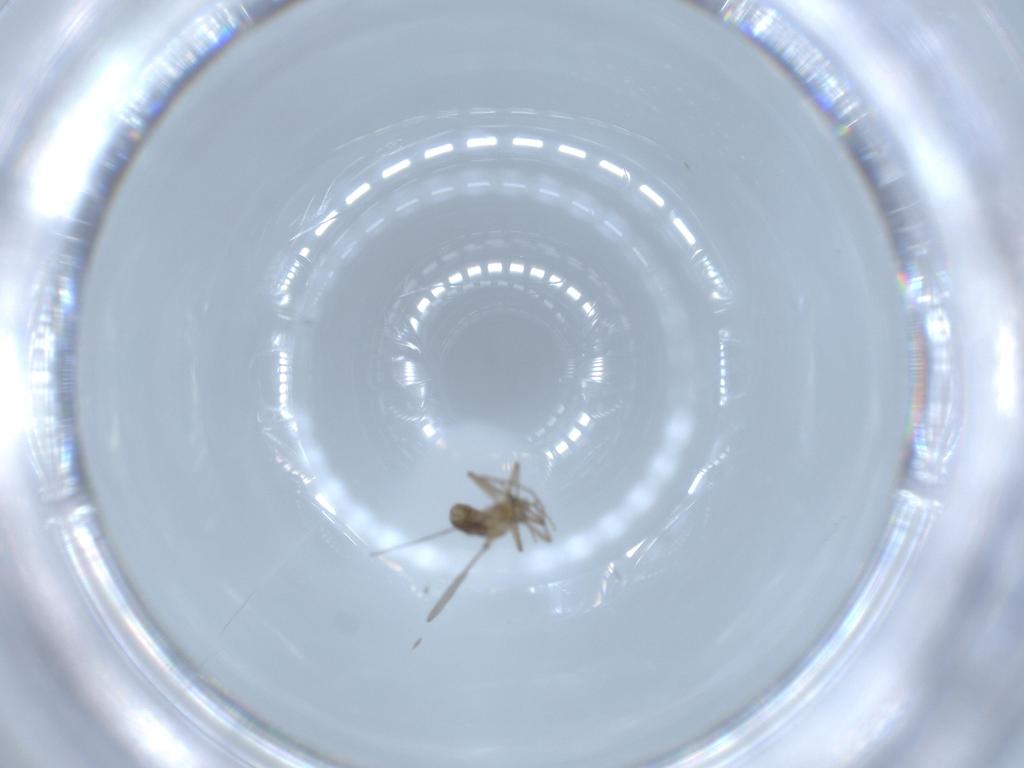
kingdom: Animalia
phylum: Arthropoda
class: Insecta
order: Diptera
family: Chironomidae
